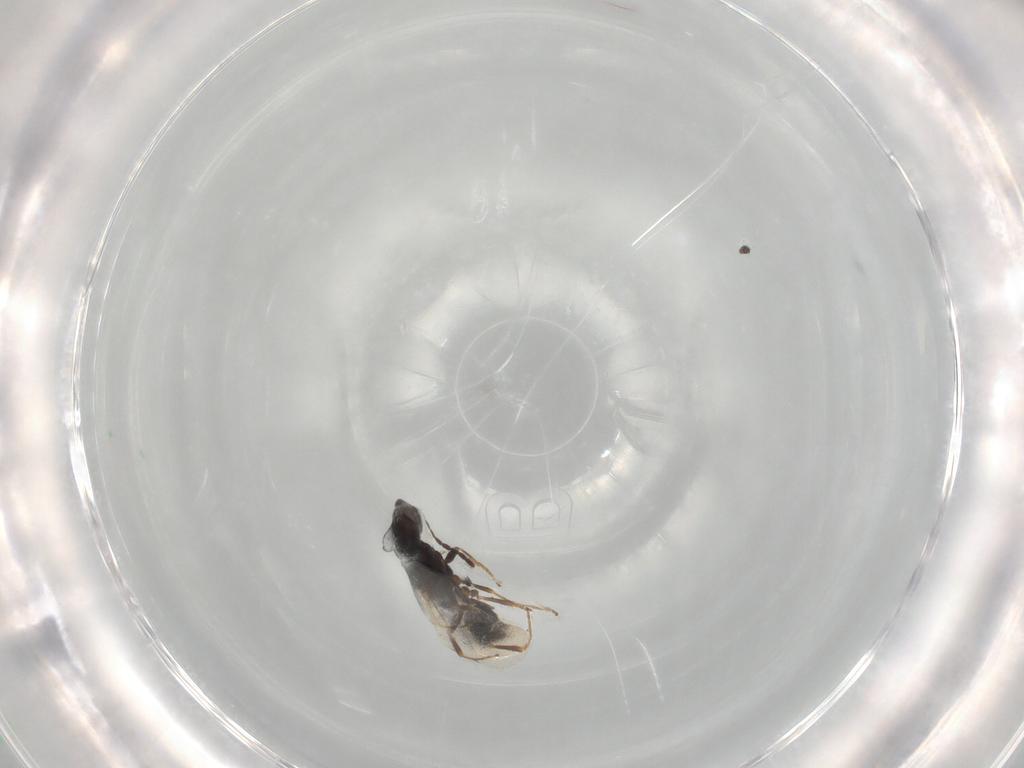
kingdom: Animalia
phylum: Arthropoda
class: Insecta
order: Hymenoptera
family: Bethylidae
